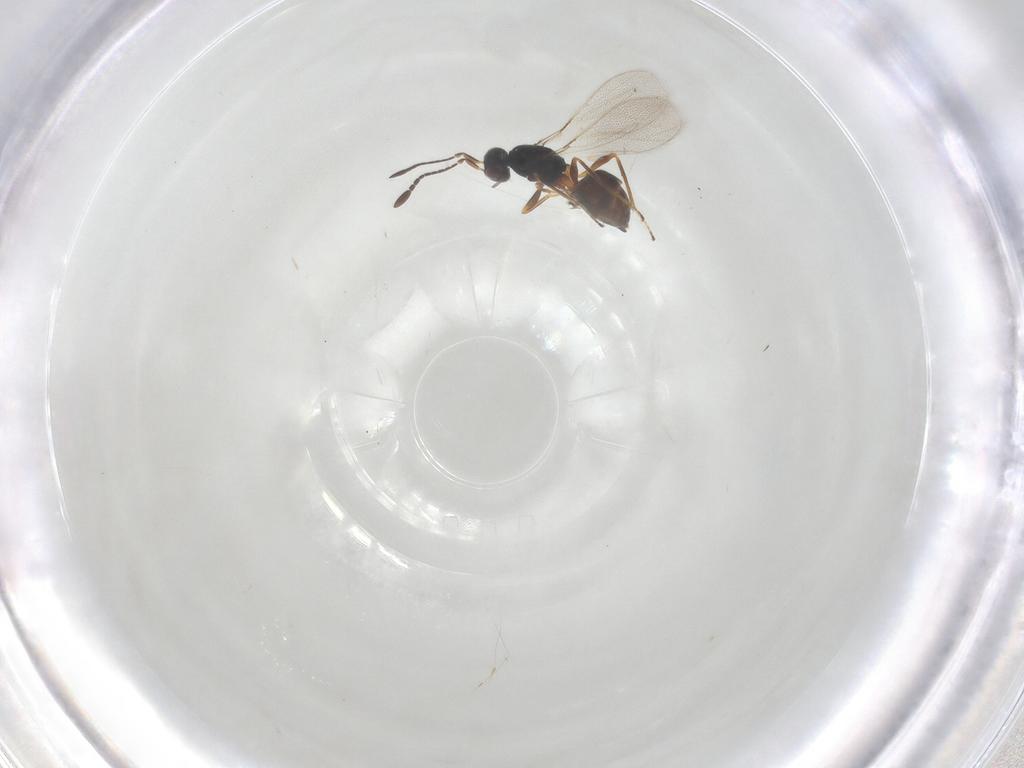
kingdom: Animalia
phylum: Arthropoda
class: Insecta
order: Hymenoptera
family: Mymaridae
